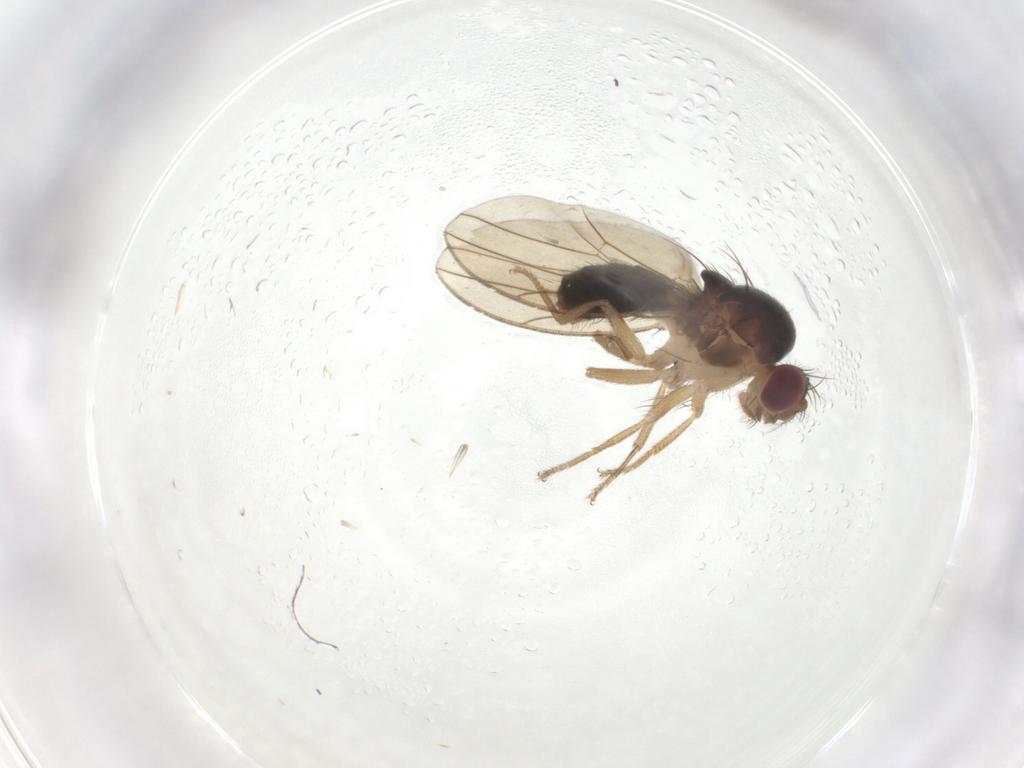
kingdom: Animalia
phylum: Arthropoda
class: Insecta
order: Diptera
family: Drosophilidae
